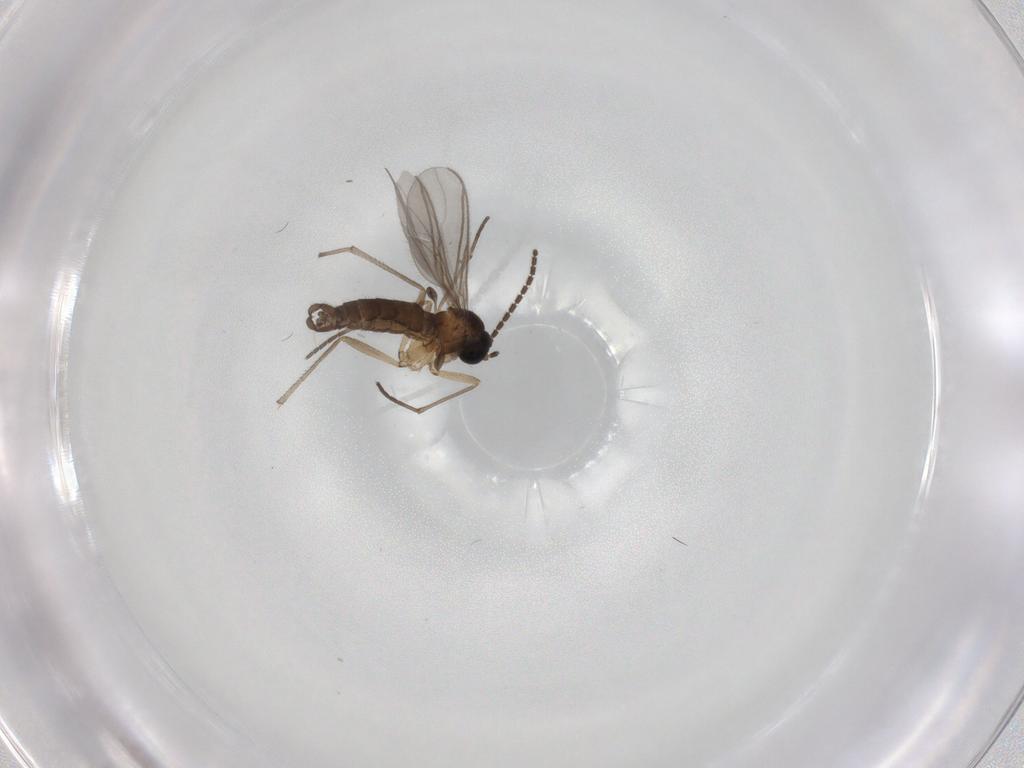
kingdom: Animalia
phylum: Arthropoda
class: Insecta
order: Diptera
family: Sciaridae
